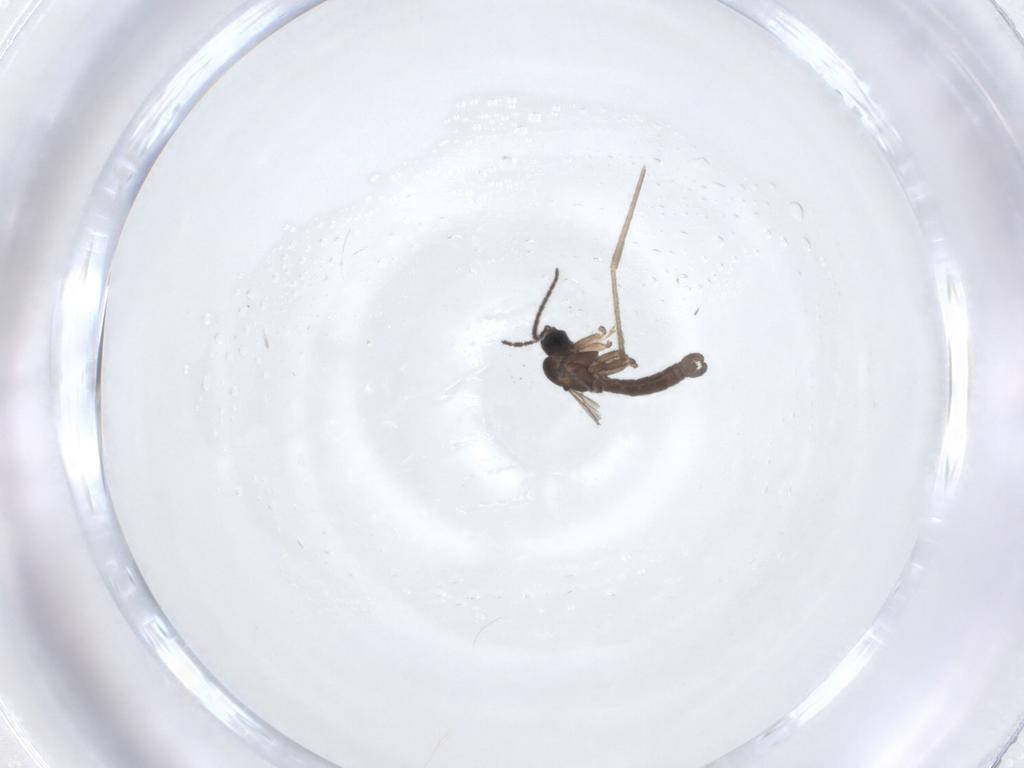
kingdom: Animalia
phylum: Arthropoda
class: Insecta
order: Diptera
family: Sciaridae
